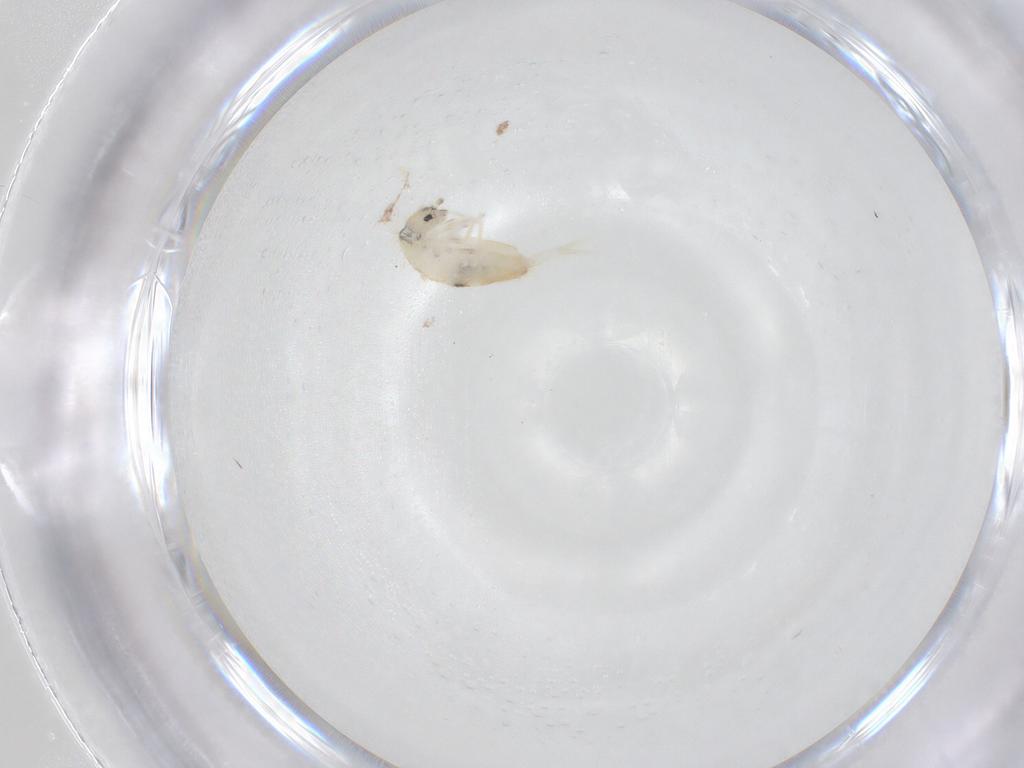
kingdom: Animalia
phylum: Arthropoda
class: Collembola
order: Entomobryomorpha
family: Entomobryidae
